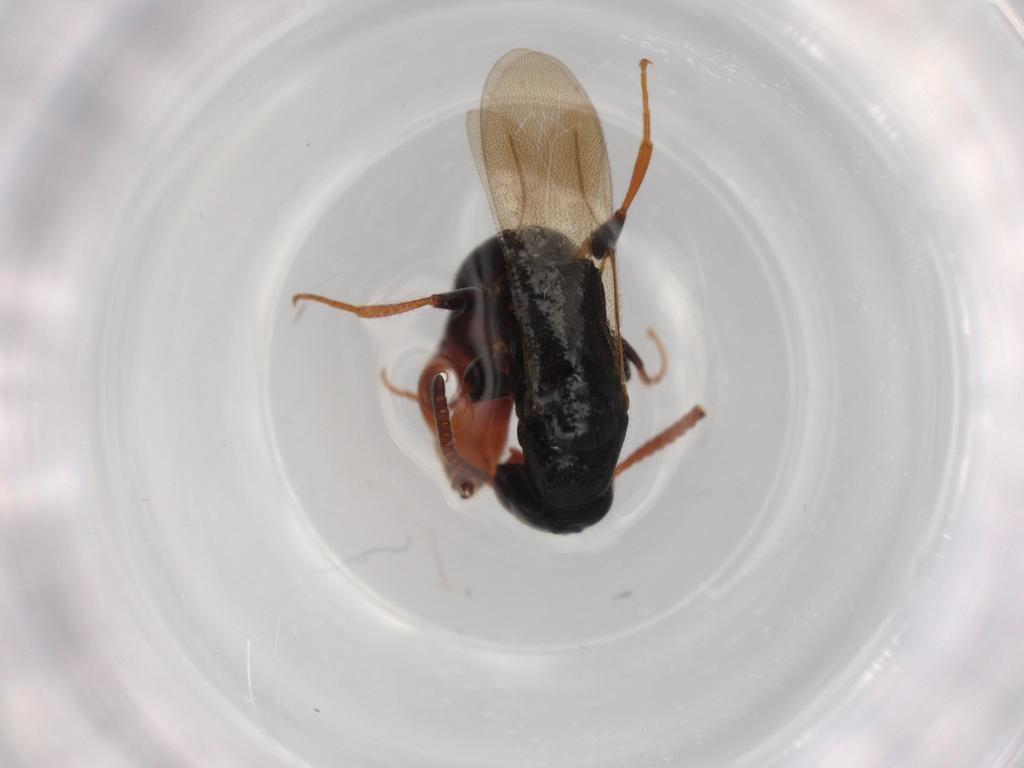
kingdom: Animalia
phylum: Arthropoda
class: Insecta
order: Hymenoptera
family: Bethylidae
